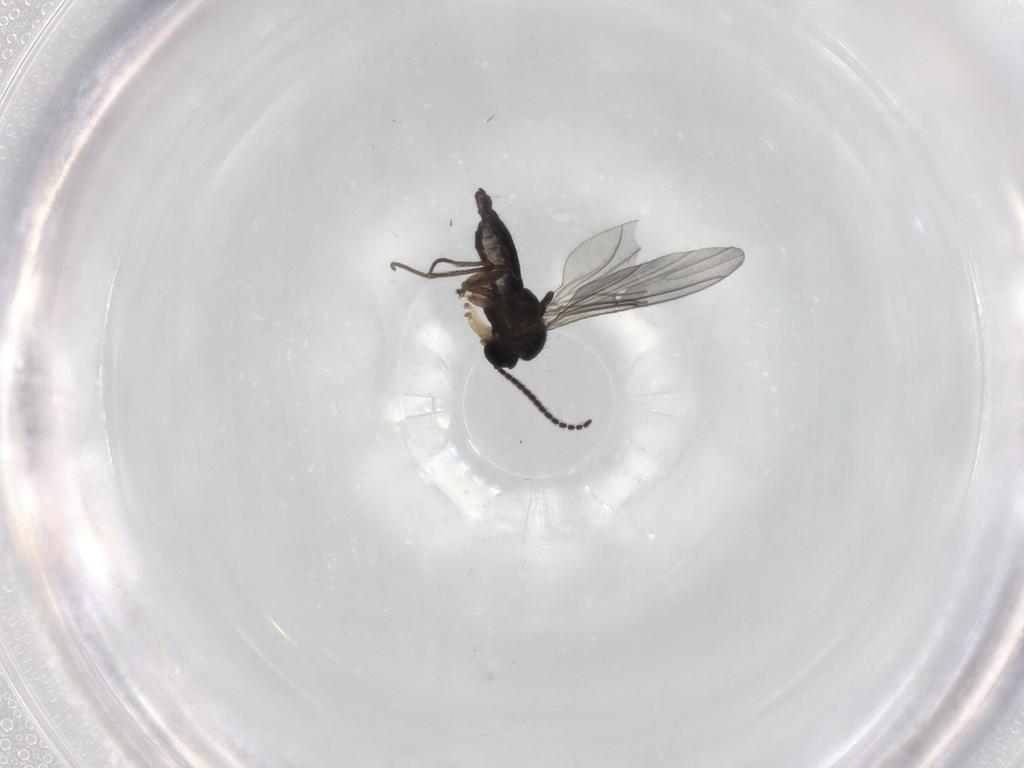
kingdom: Animalia
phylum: Arthropoda
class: Insecta
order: Diptera
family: Sciaridae
